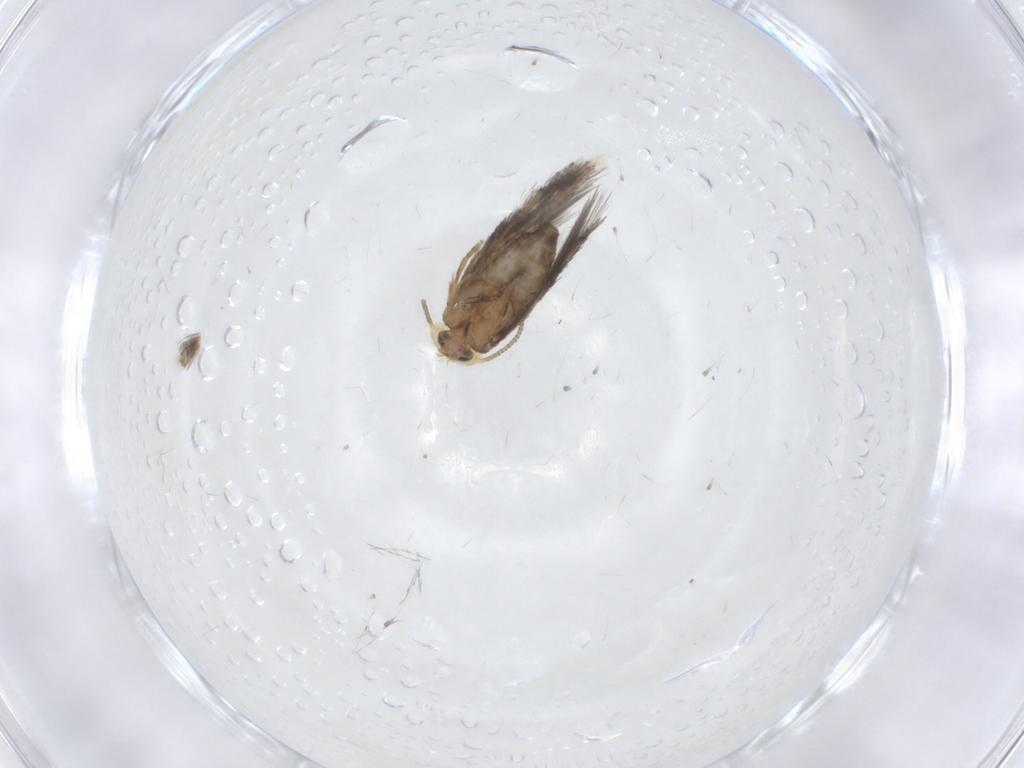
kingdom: Animalia
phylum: Arthropoda
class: Insecta
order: Lepidoptera
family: Nepticulidae
